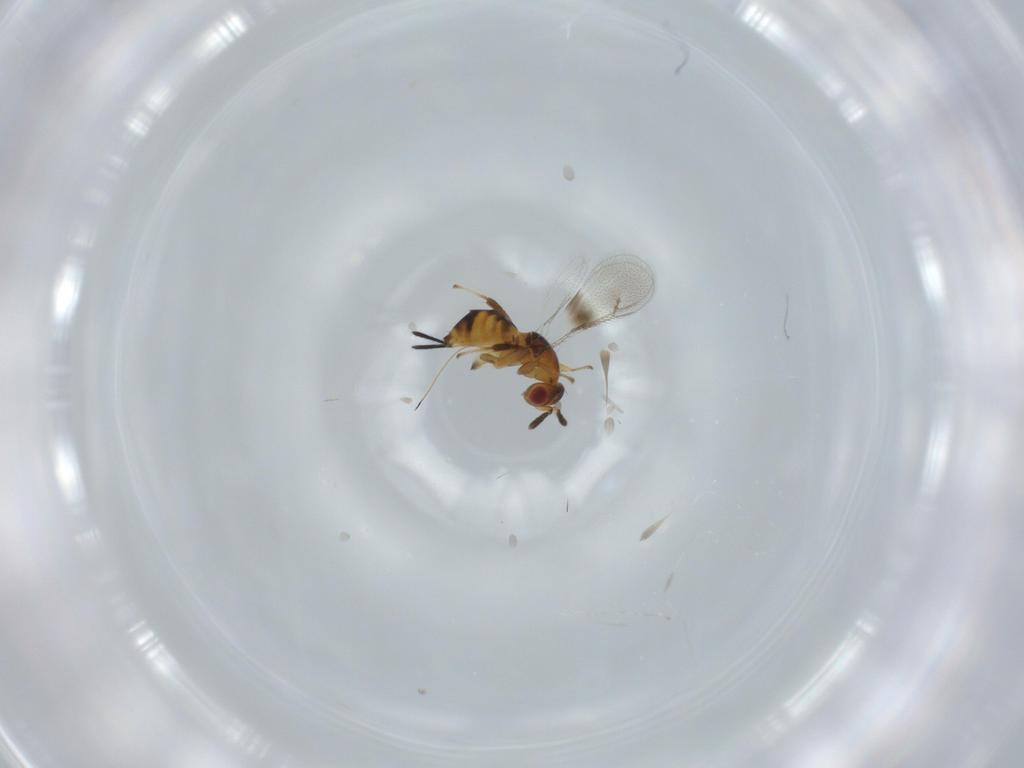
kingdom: Animalia
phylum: Arthropoda
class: Insecta
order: Hymenoptera
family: Torymidae
